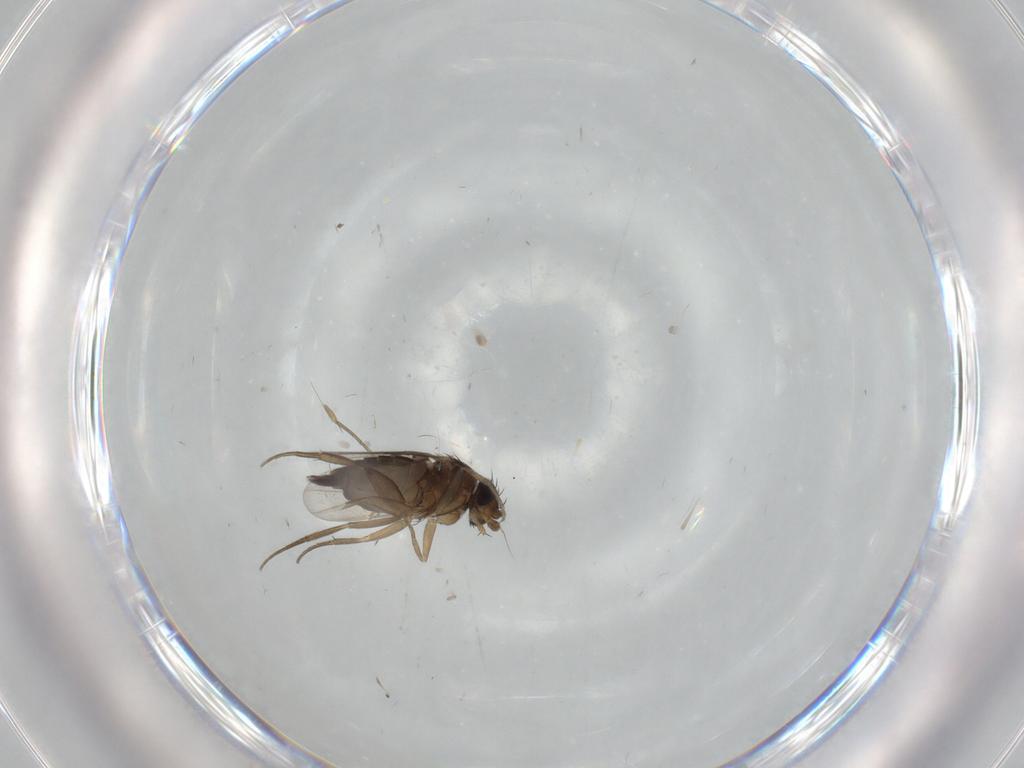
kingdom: Animalia
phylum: Arthropoda
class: Insecta
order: Diptera
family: Phoridae
